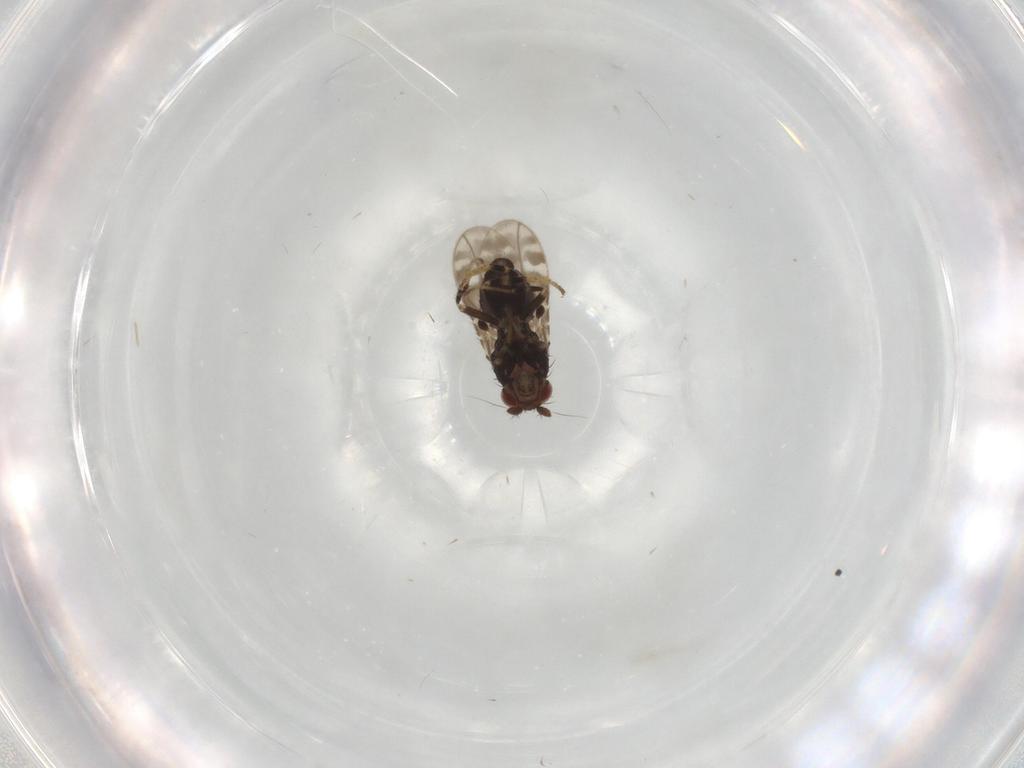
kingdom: Animalia
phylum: Arthropoda
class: Insecta
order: Diptera
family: Sphaeroceridae
